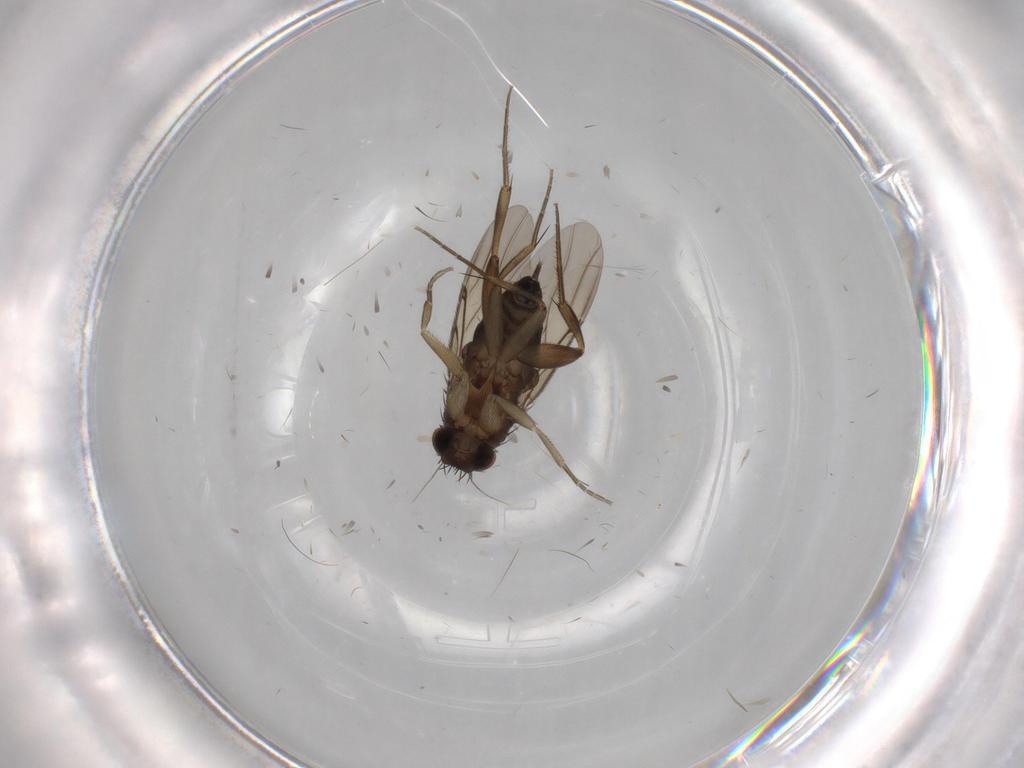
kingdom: Animalia
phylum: Arthropoda
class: Insecta
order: Diptera
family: Phoridae
